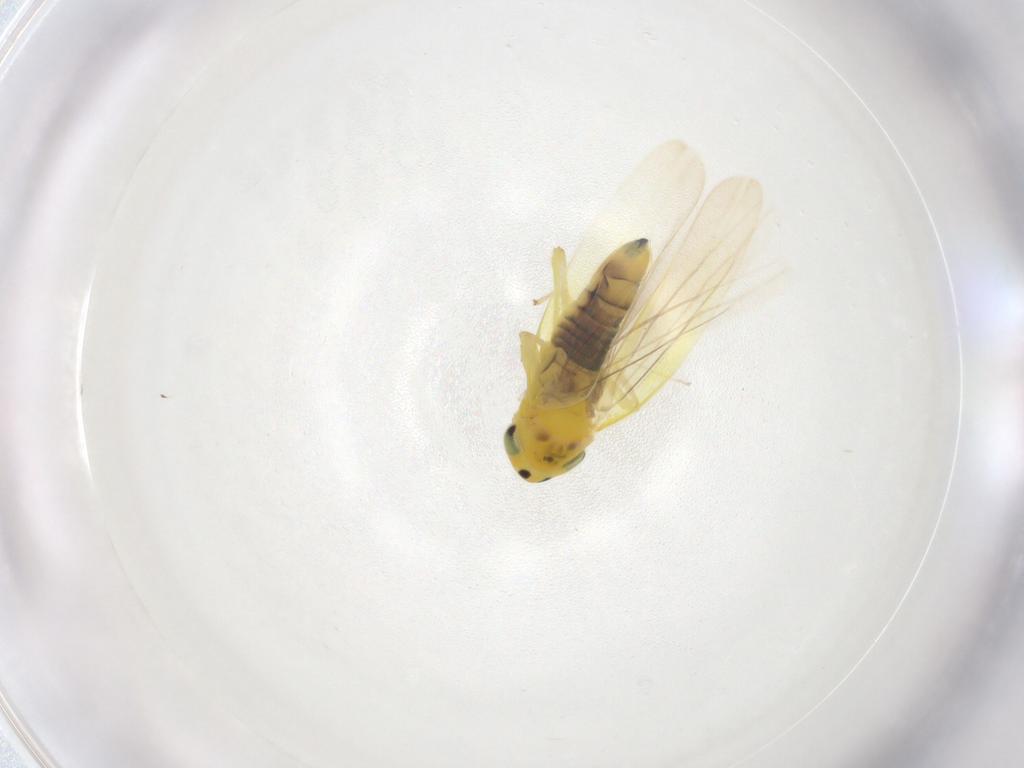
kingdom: Animalia
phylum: Arthropoda
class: Insecta
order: Hemiptera
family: Cicadellidae
